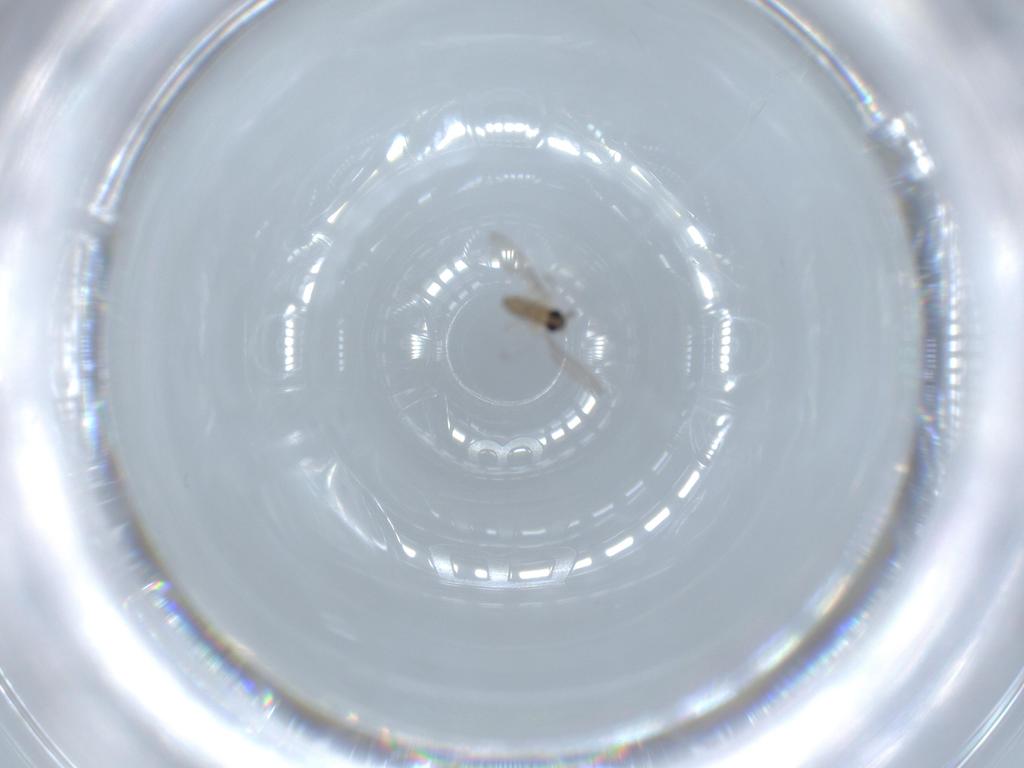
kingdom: Animalia
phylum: Arthropoda
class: Insecta
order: Diptera
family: Cecidomyiidae
